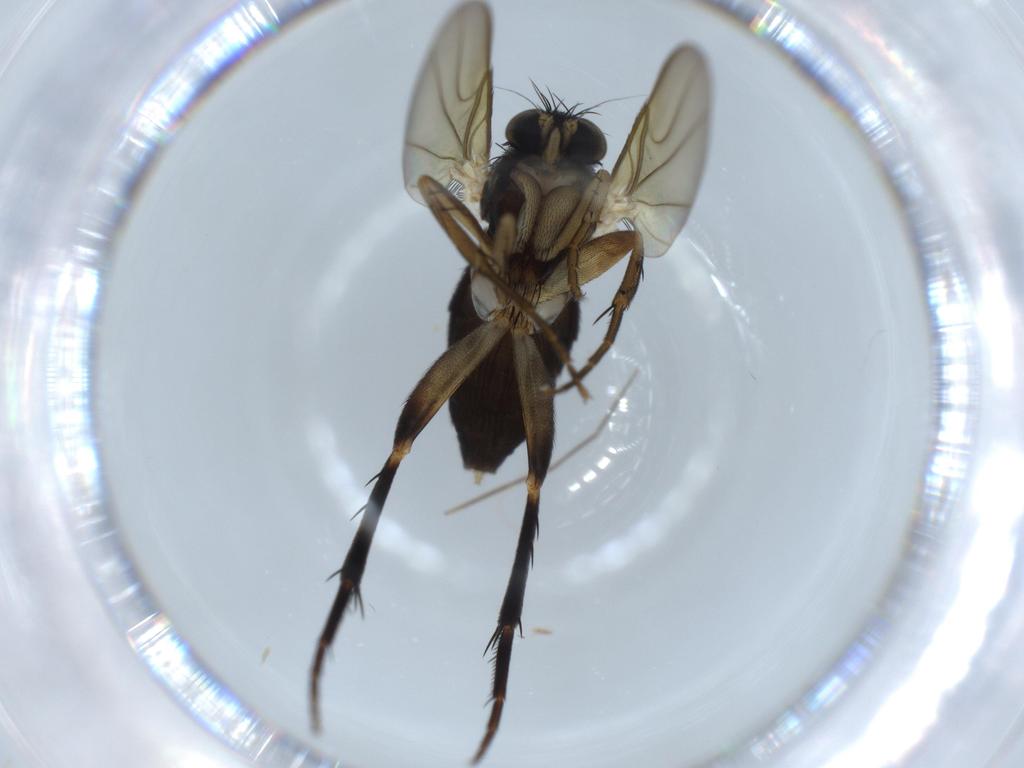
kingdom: Animalia
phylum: Arthropoda
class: Insecta
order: Diptera
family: Phoridae
